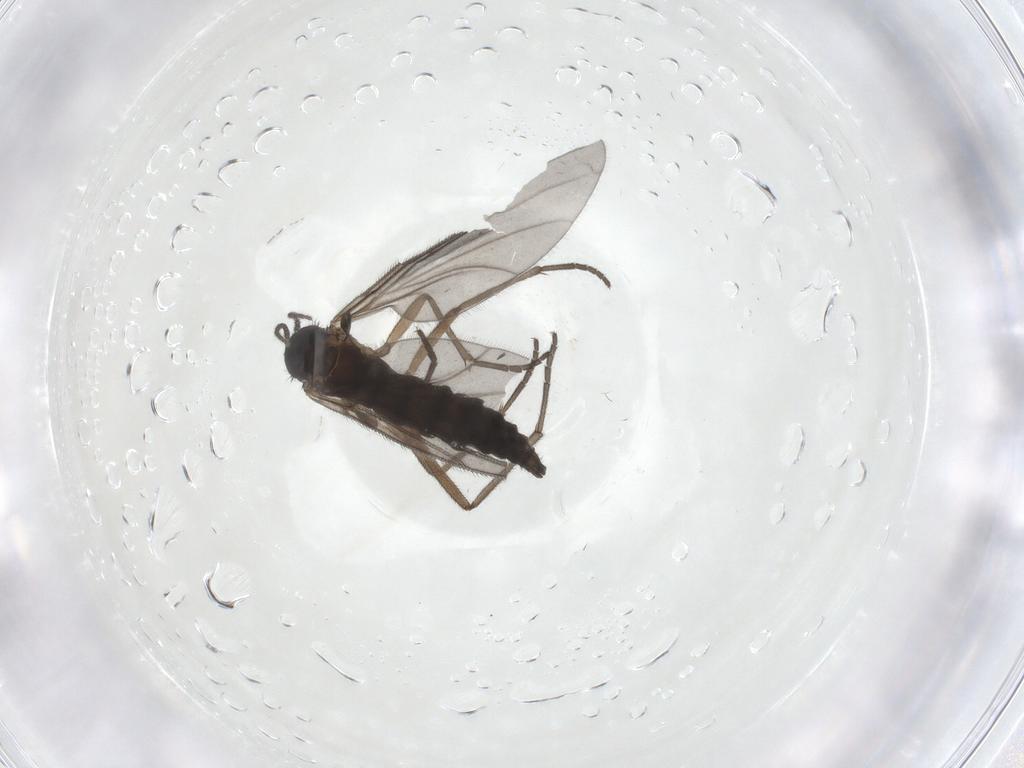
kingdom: Animalia
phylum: Arthropoda
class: Insecta
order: Diptera
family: Sciaridae
